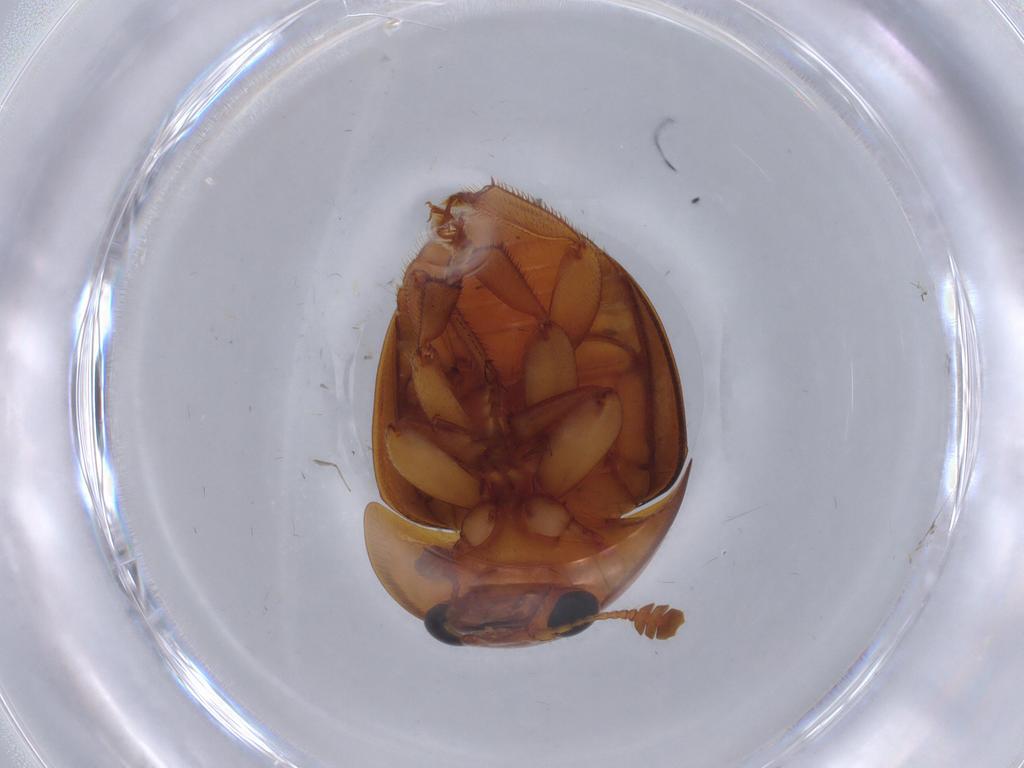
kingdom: Animalia
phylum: Arthropoda
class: Insecta
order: Coleoptera
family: Nitidulidae
